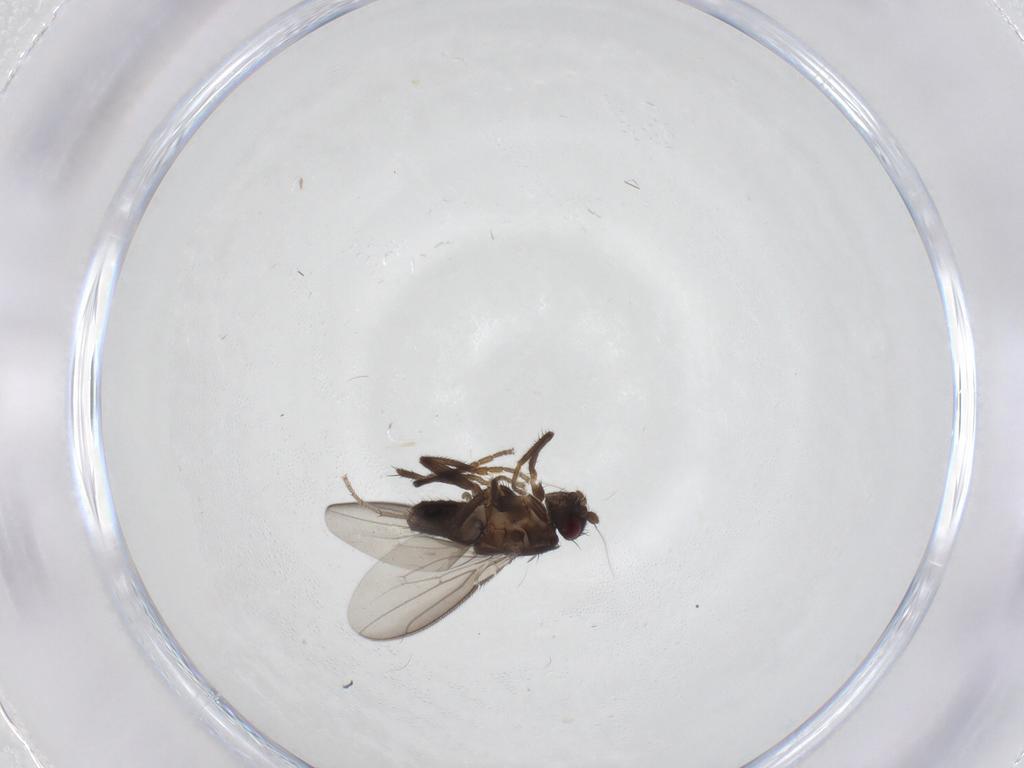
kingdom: Animalia
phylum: Arthropoda
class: Insecta
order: Diptera
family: Sphaeroceridae
